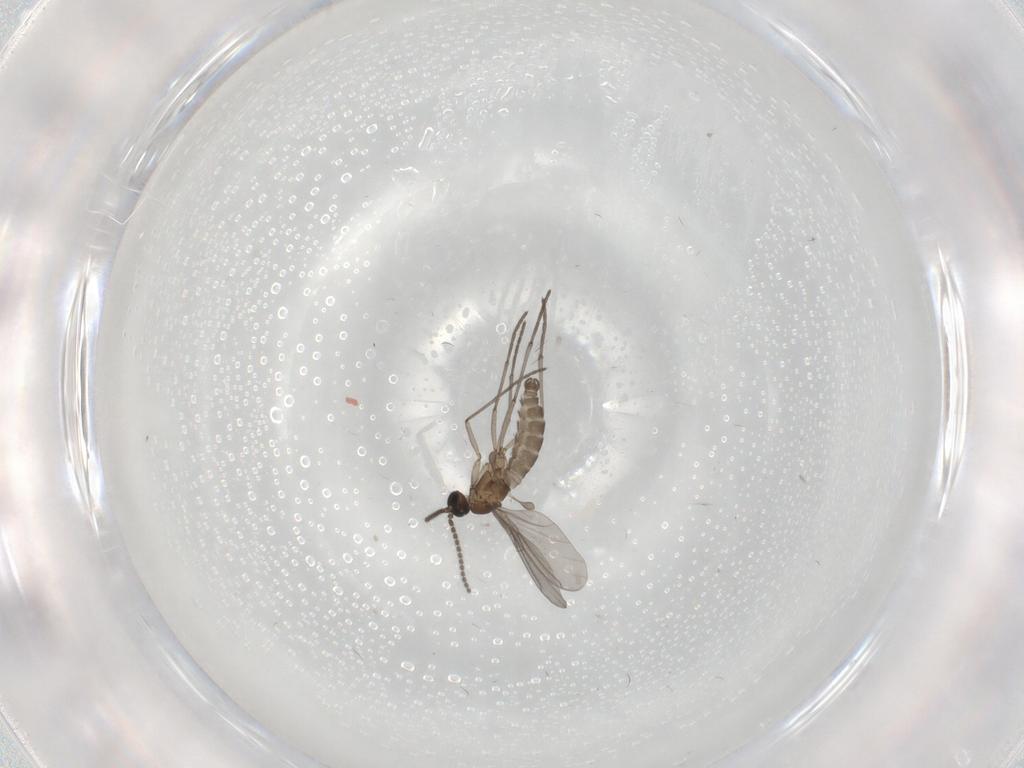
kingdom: Animalia
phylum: Arthropoda
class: Insecta
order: Diptera
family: Sciaridae
